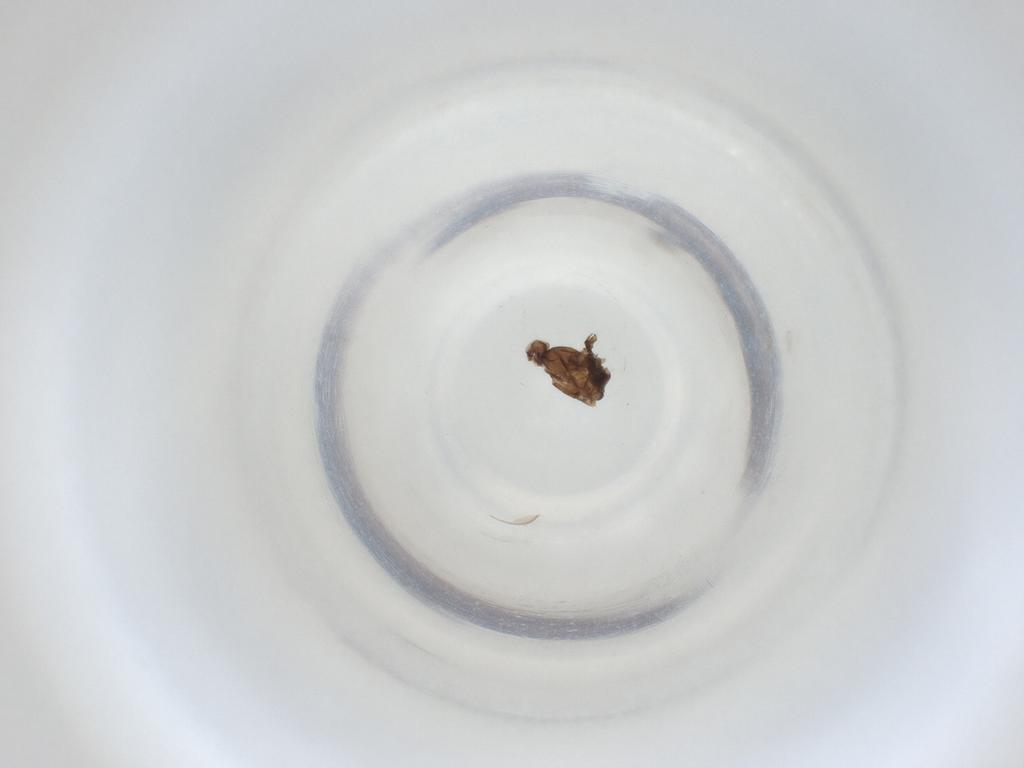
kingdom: Animalia
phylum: Arthropoda
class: Insecta
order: Diptera
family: Cecidomyiidae
